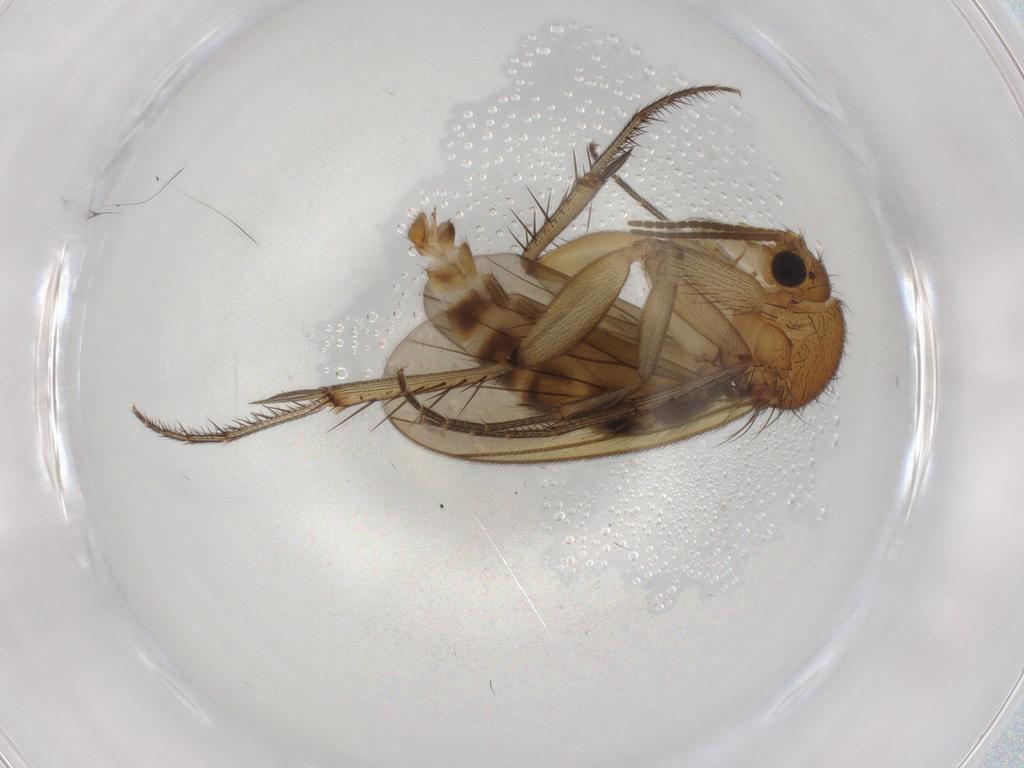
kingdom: Animalia
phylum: Arthropoda
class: Insecta
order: Diptera
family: Mycetophilidae
